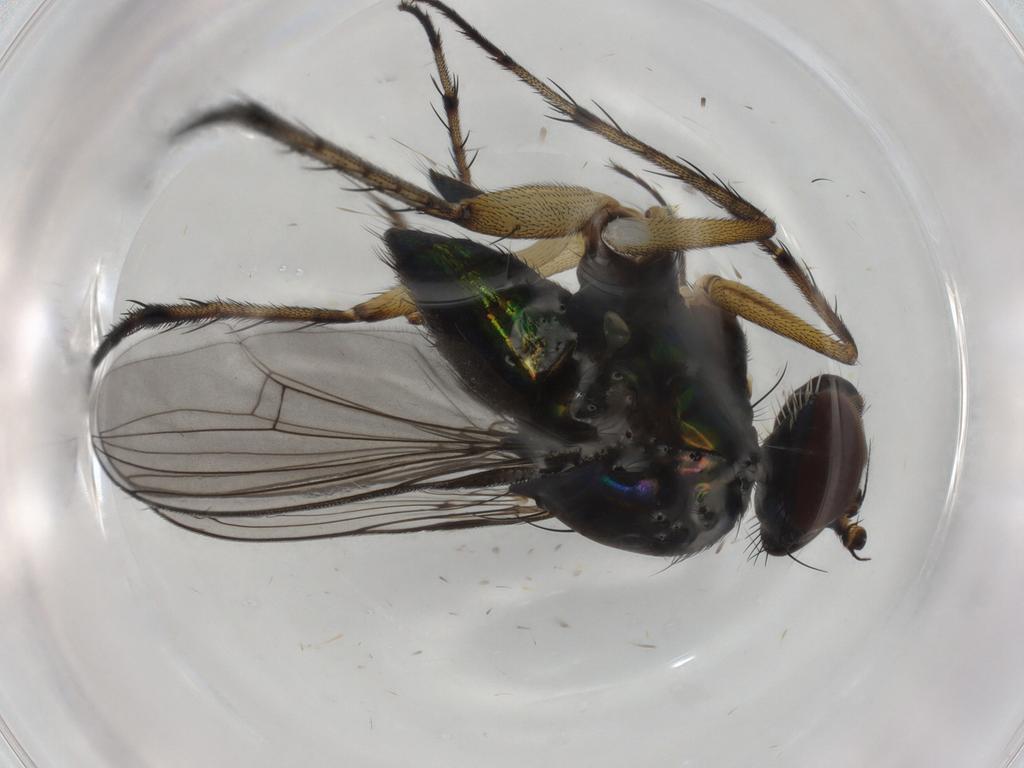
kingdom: Animalia
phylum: Arthropoda
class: Insecta
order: Diptera
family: Dolichopodidae
